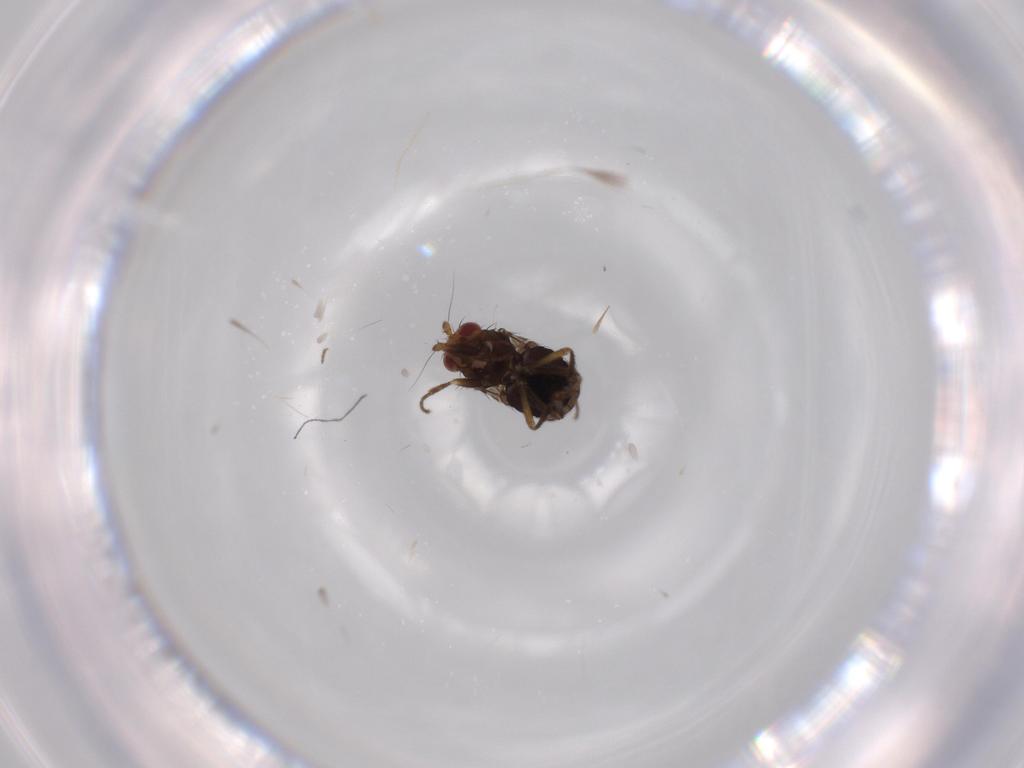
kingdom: Animalia
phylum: Arthropoda
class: Insecta
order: Diptera
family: Sphaeroceridae
